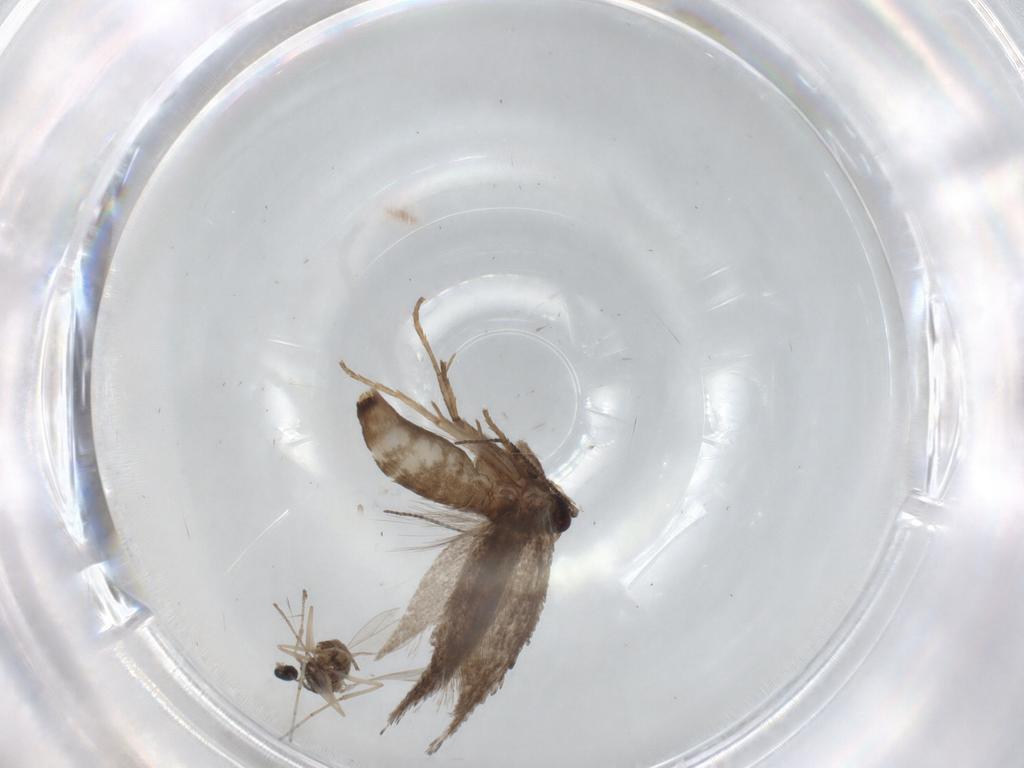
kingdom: Animalia
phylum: Arthropoda
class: Insecta
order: Lepidoptera
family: Nepticulidae
